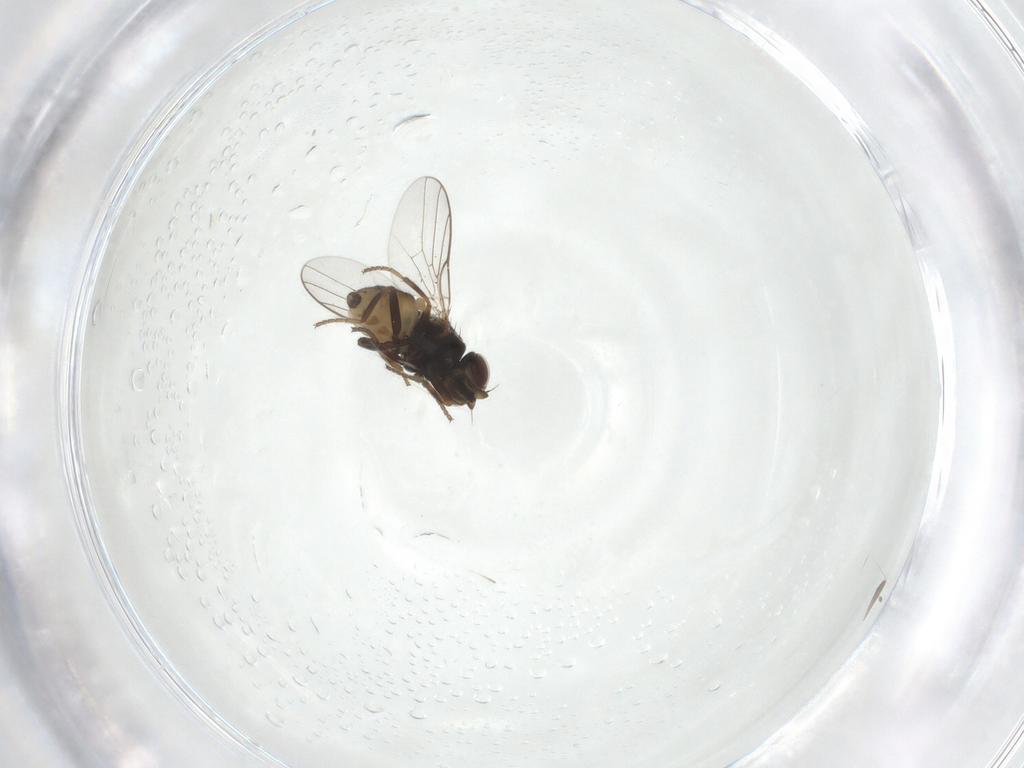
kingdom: Animalia
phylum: Arthropoda
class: Insecta
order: Diptera
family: Chloropidae
